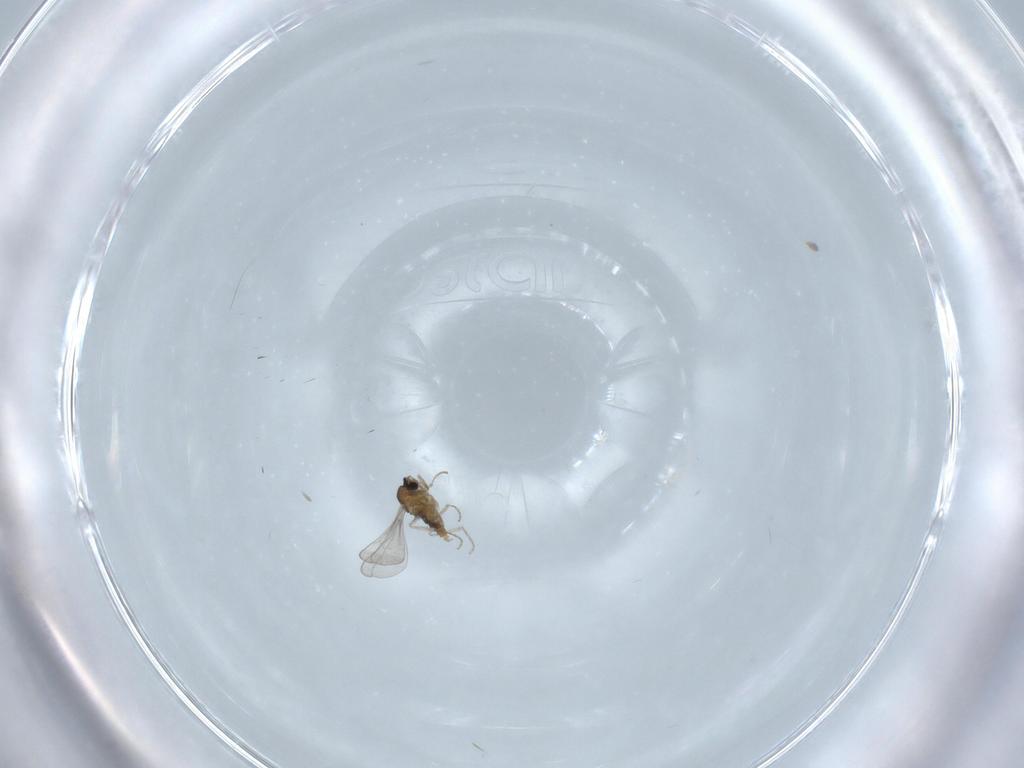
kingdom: Animalia
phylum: Arthropoda
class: Insecta
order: Diptera
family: Cecidomyiidae
